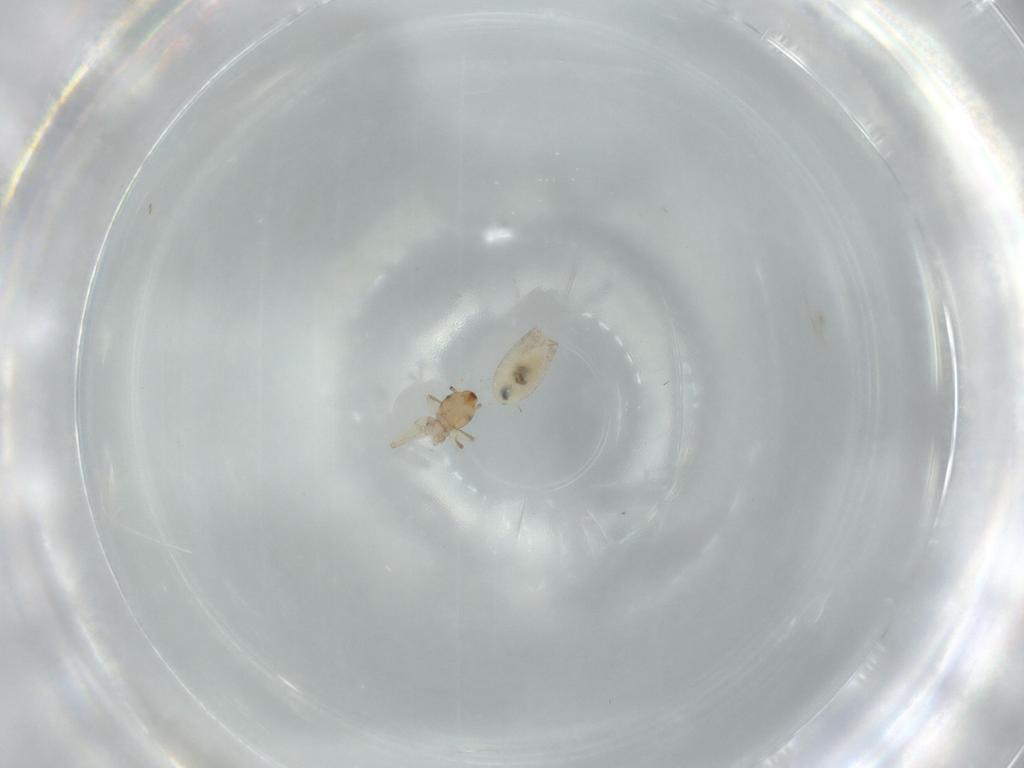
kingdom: Animalia
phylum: Arthropoda
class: Insecta
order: Psocodea
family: Liposcelididae
